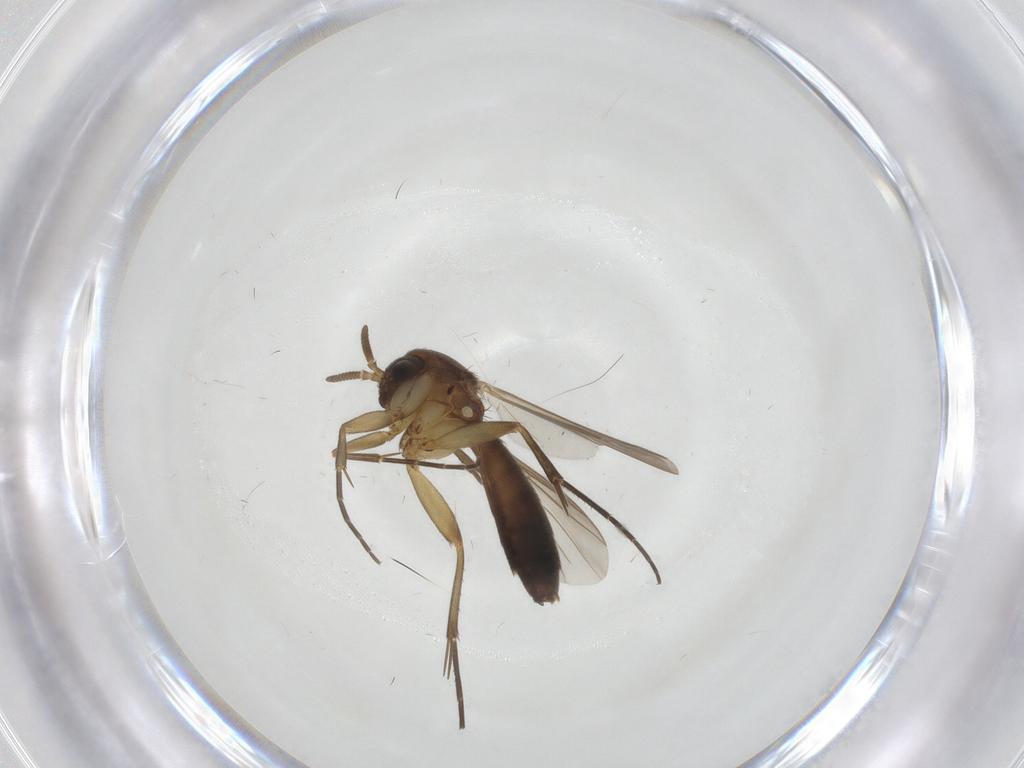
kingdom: Animalia
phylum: Arthropoda
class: Insecta
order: Diptera
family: Mycetophilidae
